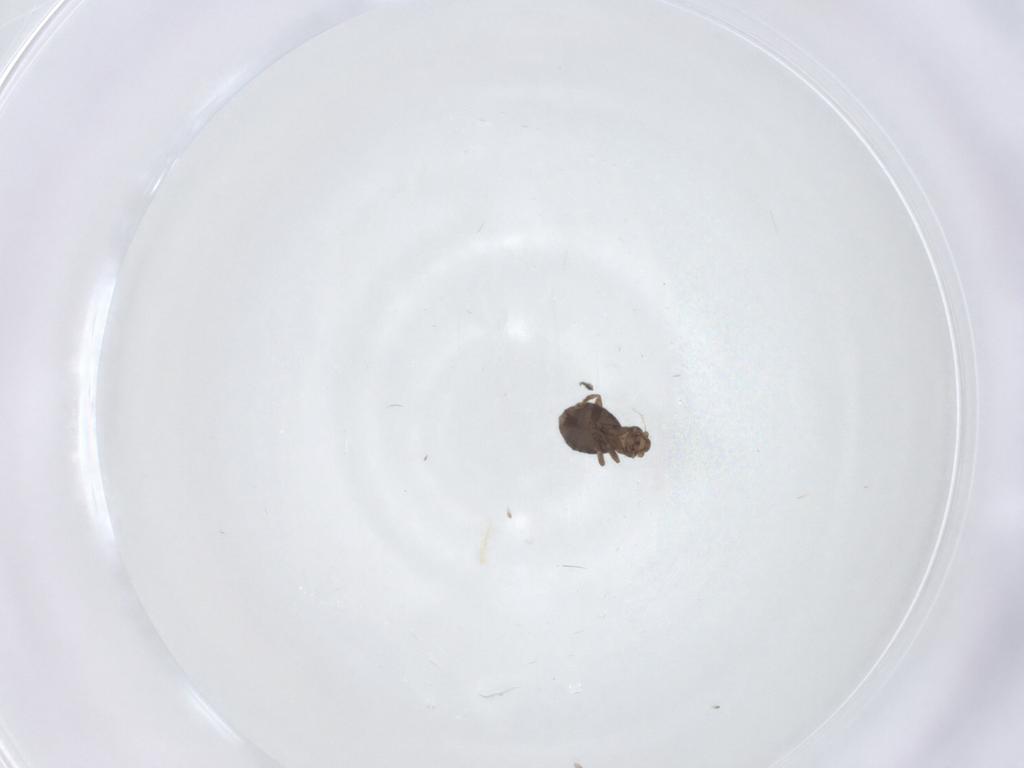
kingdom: Animalia
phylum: Arthropoda
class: Insecta
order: Diptera
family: Phoridae
